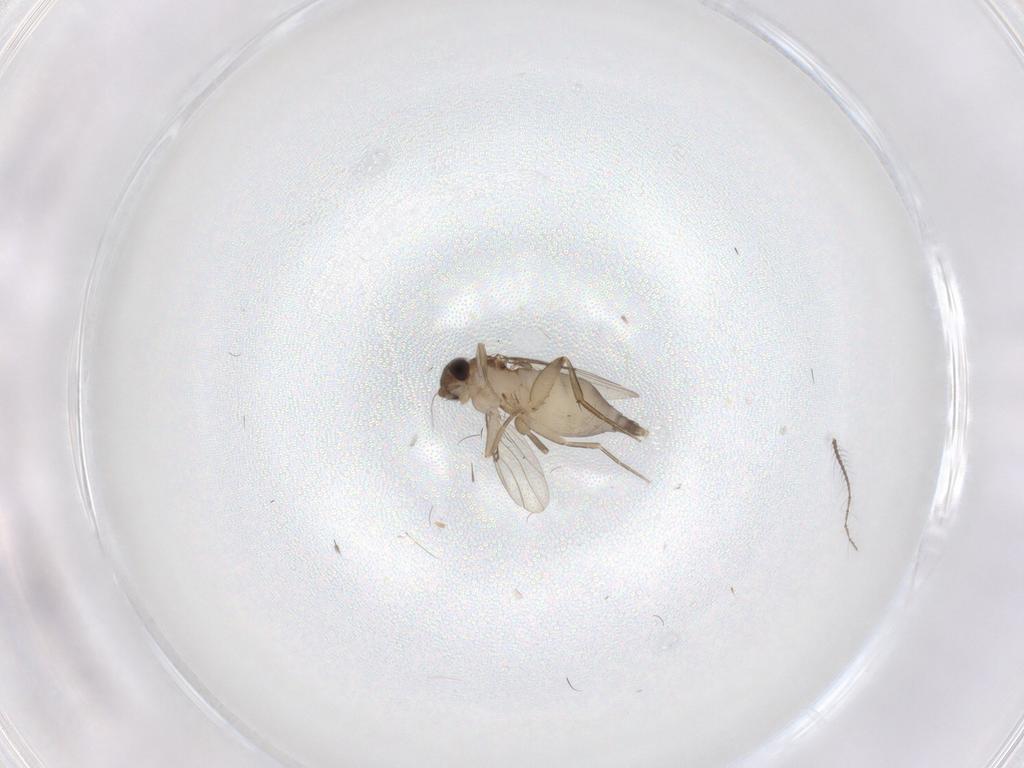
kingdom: Animalia
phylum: Arthropoda
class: Insecta
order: Diptera
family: Phoridae
